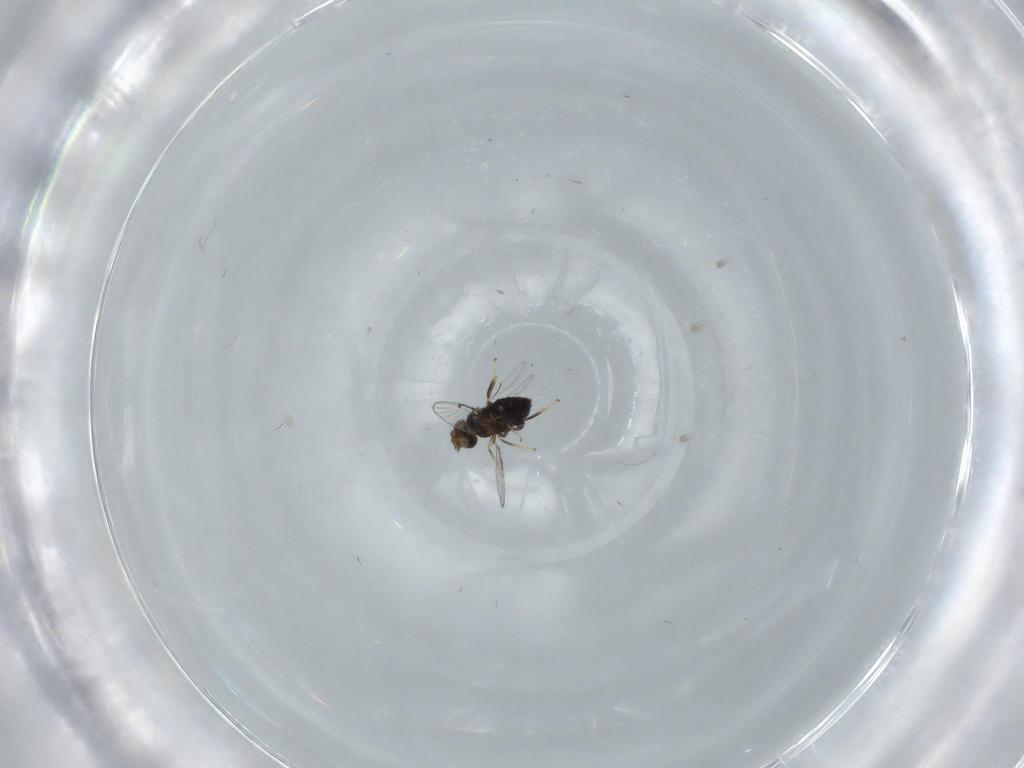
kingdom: Animalia
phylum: Arthropoda
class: Insecta
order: Hymenoptera
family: Trichogrammatidae
